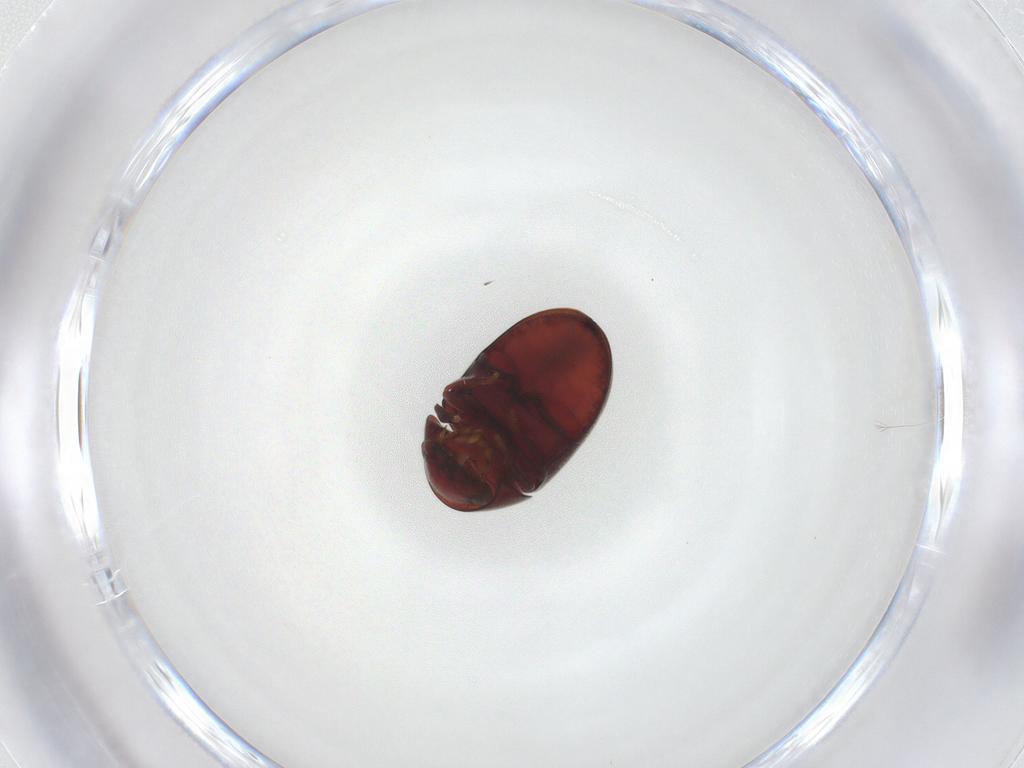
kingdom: Animalia
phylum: Arthropoda
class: Insecta
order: Coleoptera
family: Ptinidae
